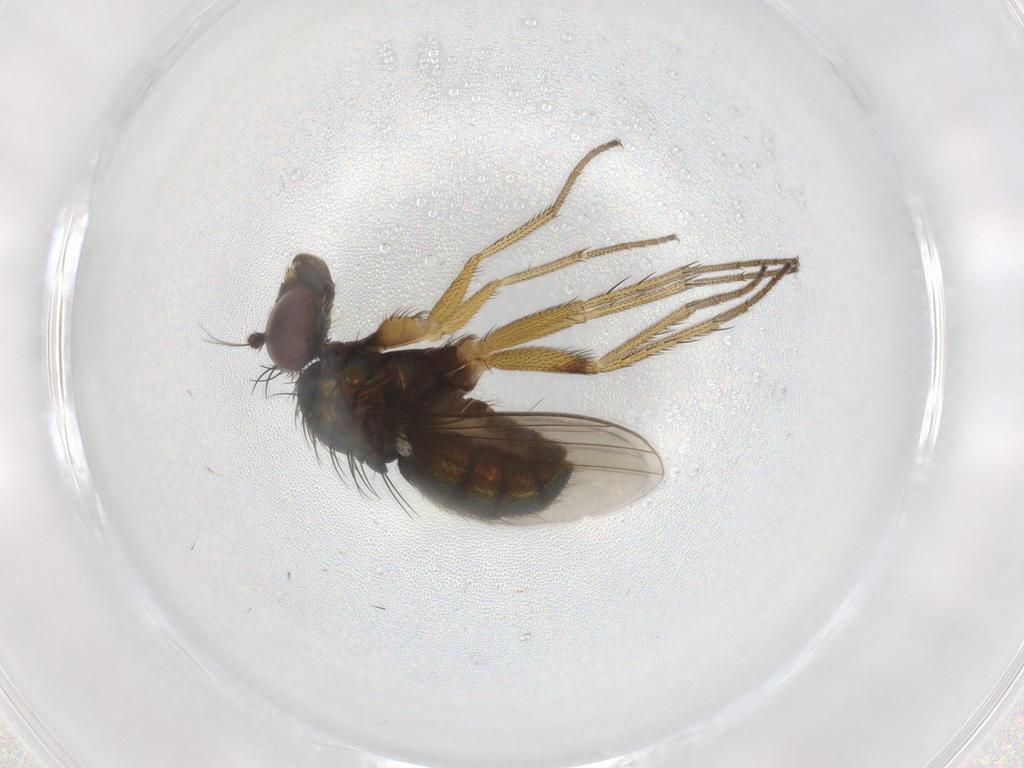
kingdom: Animalia
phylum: Arthropoda
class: Insecta
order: Diptera
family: Dolichopodidae
